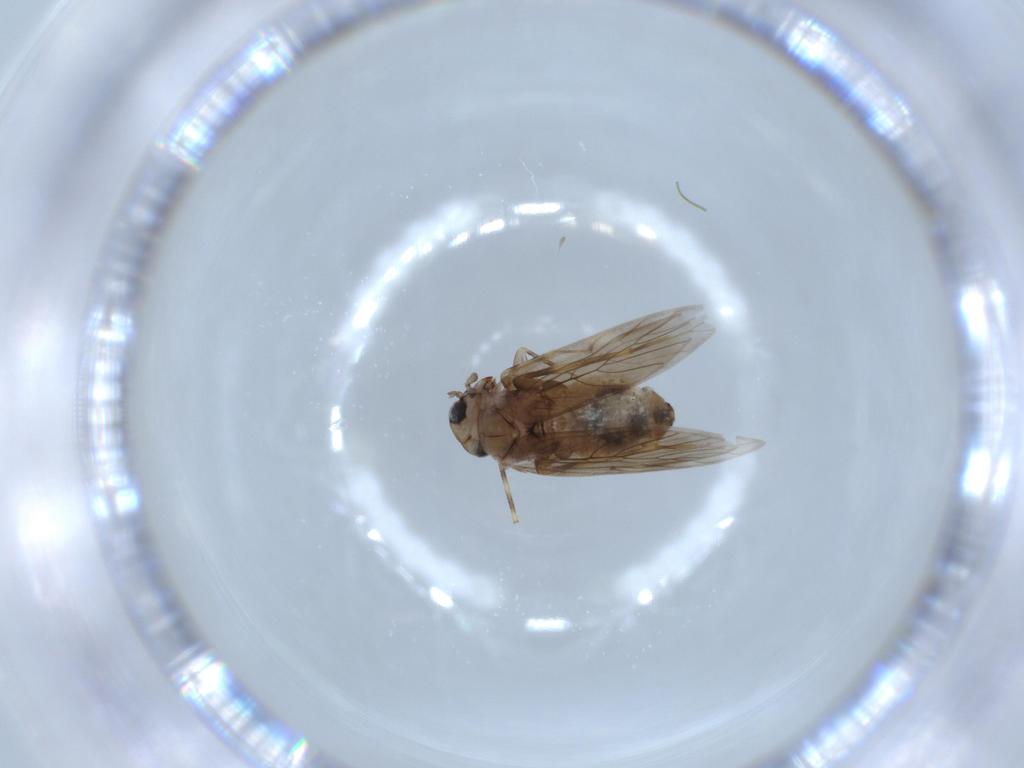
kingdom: Animalia
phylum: Arthropoda
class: Insecta
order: Psocodea
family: Lepidopsocidae
